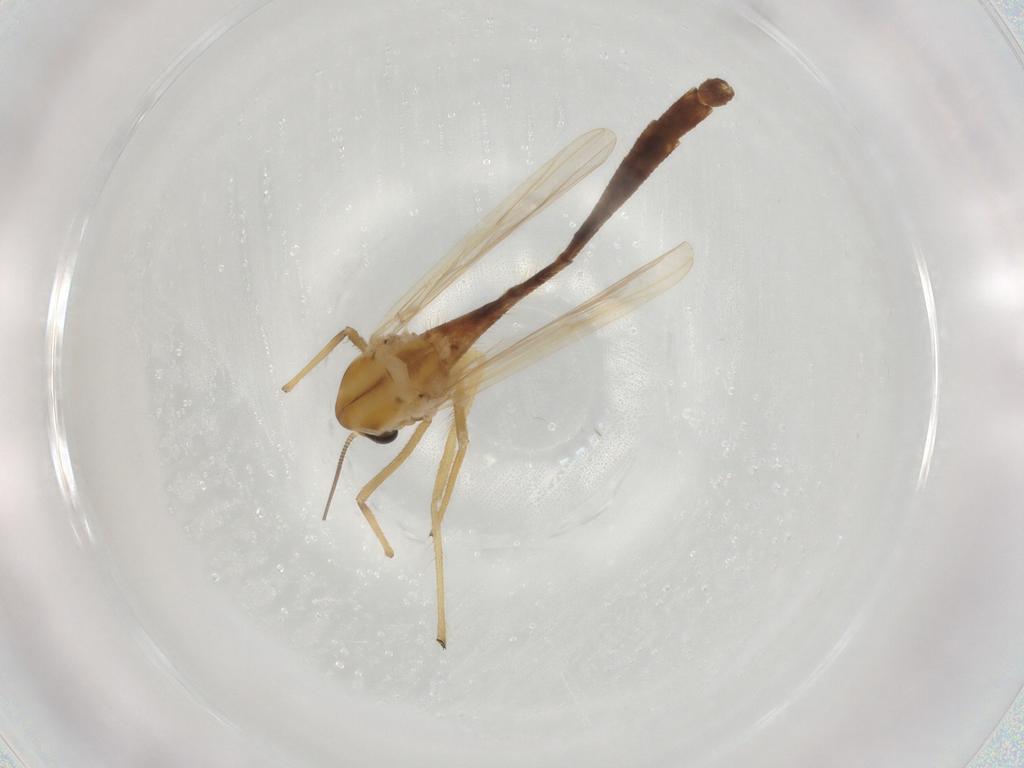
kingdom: Animalia
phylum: Arthropoda
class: Insecta
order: Diptera
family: Chironomidae
